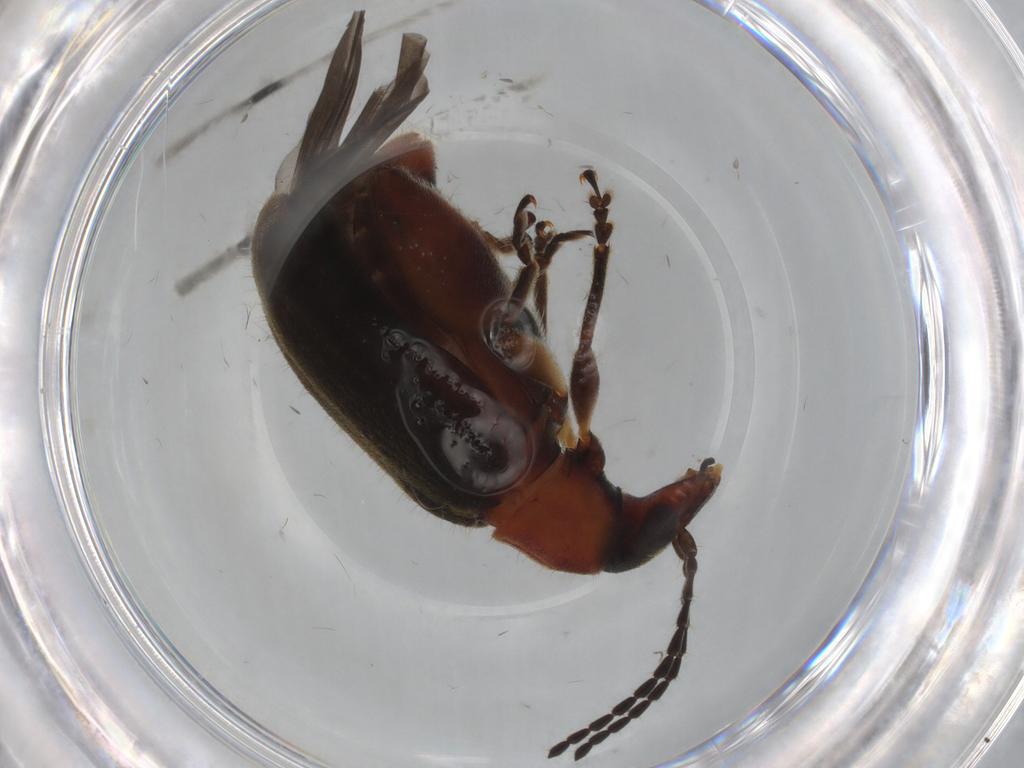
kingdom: Animalia
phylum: Arthropoda
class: Insecta
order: Coleoptera
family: Chrysomelidae
